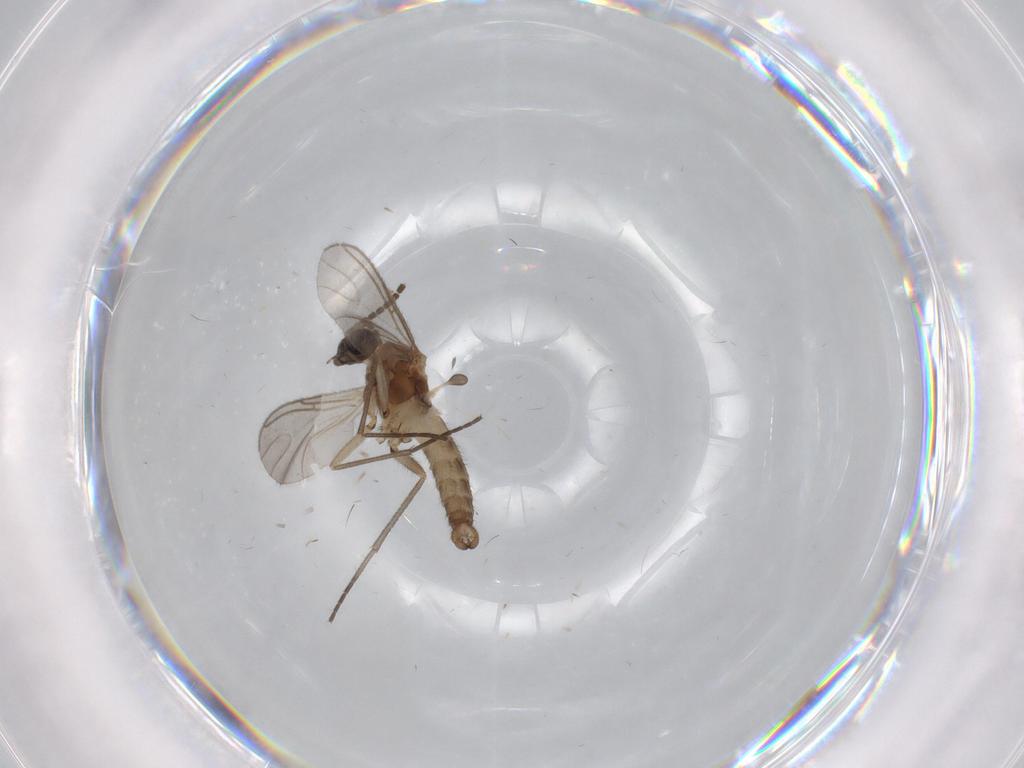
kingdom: Animalia
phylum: Arthropoda
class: Insecta
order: Diptera
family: Sciaridae
